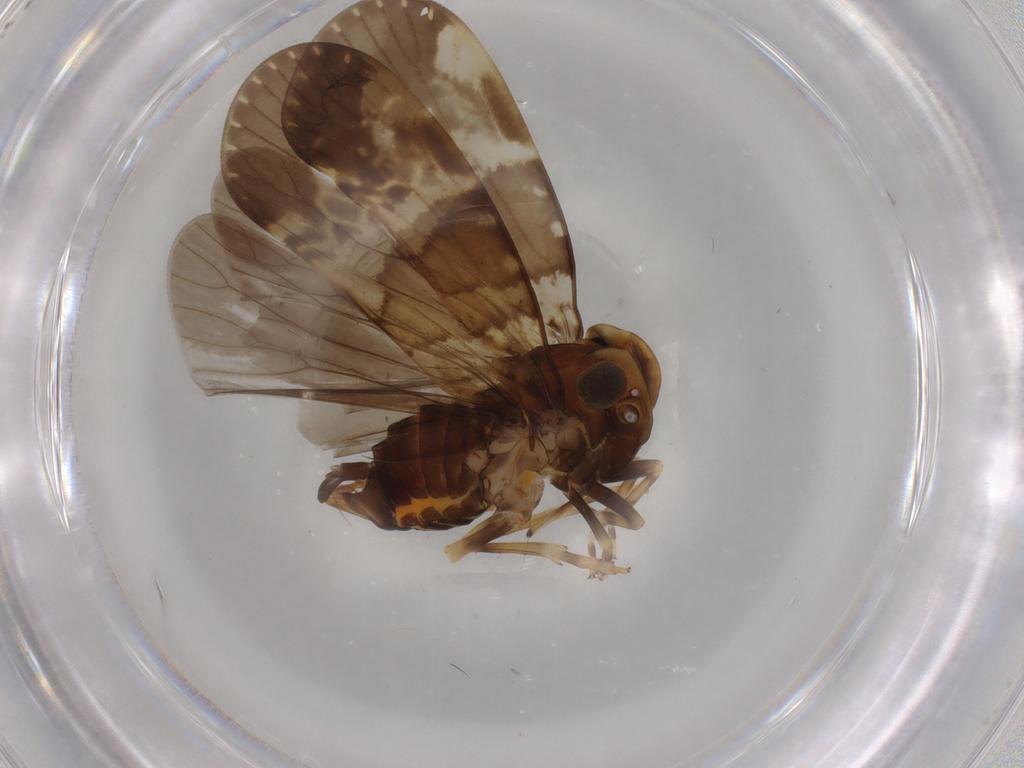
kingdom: Animalia
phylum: Arthropoda
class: Insecta
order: Hemiptera
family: Cixiidae
